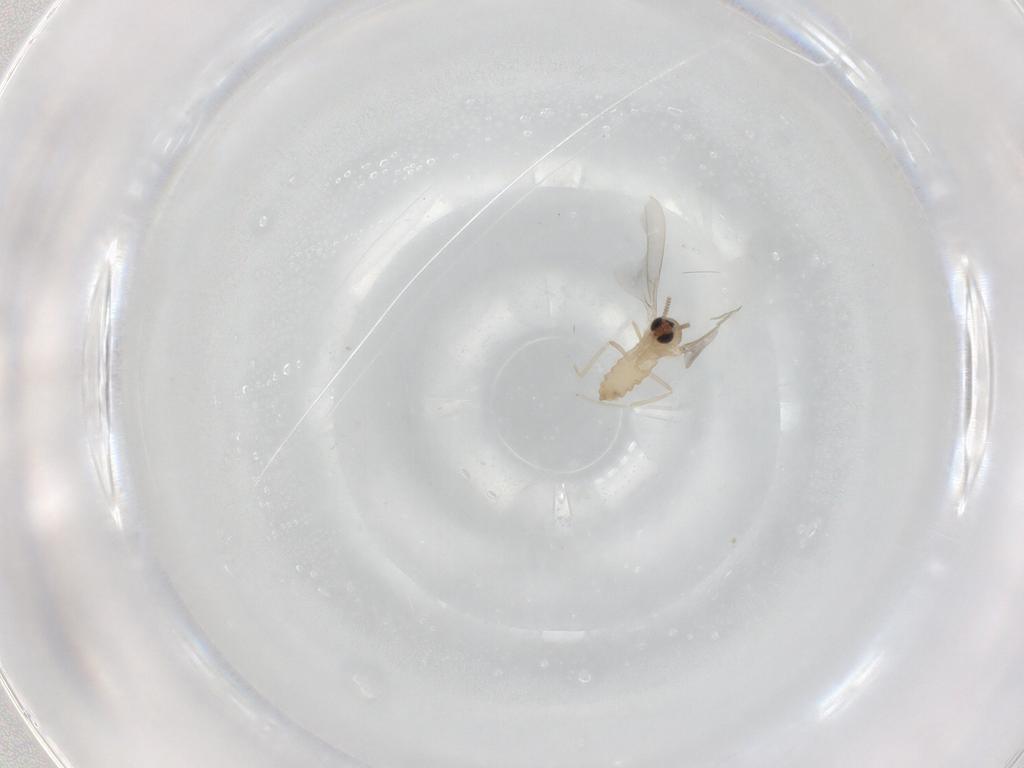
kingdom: Animalia
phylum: Arthropoda
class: Insecta
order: Diptera
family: Cecidomyiidae
